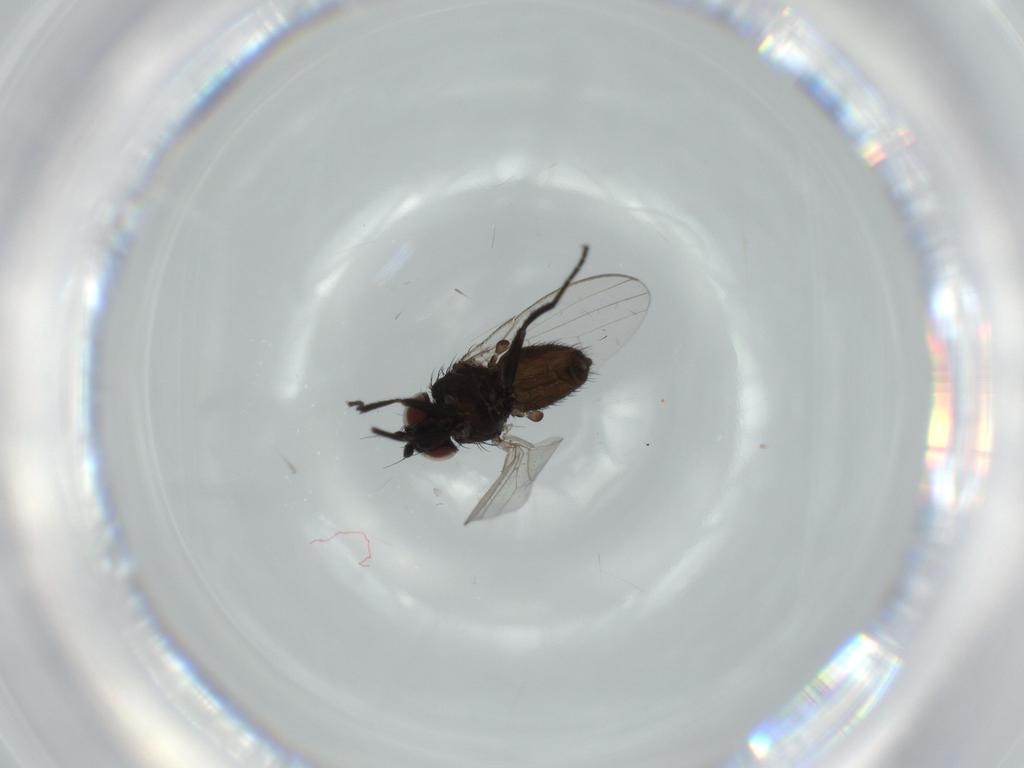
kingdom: Animalia
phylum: Arthropoda
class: Insecta
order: Diptera
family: Milichiidae
